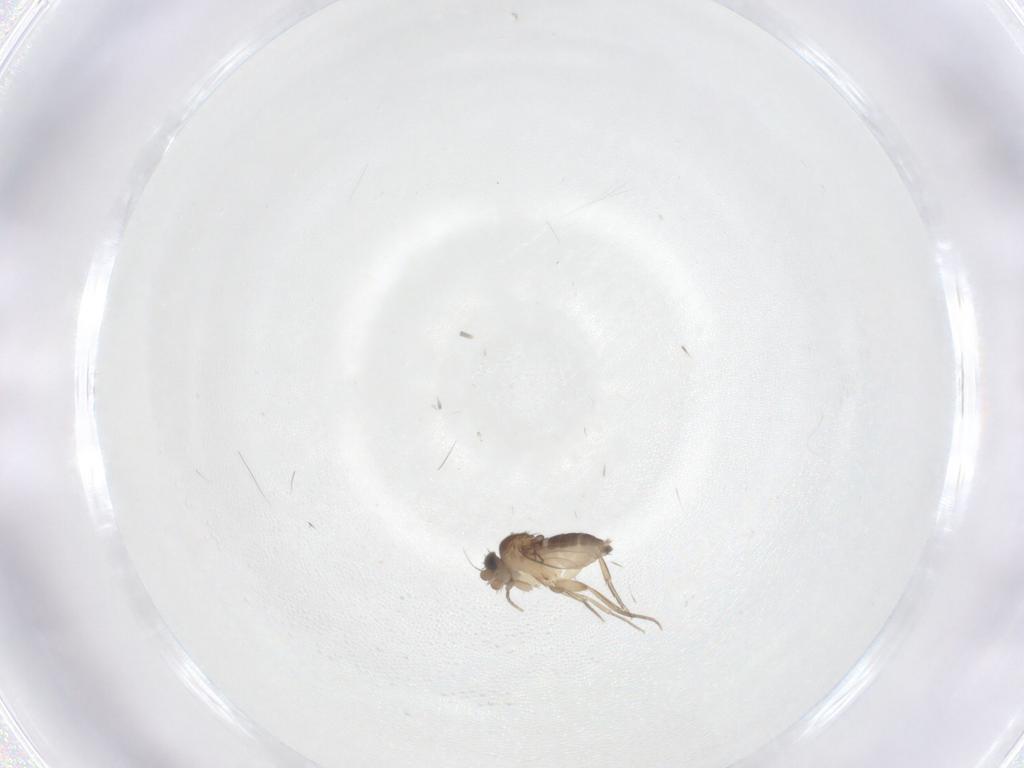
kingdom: Animalia
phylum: Arthropoda
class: Insecta
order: Diptera
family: Phoridae
